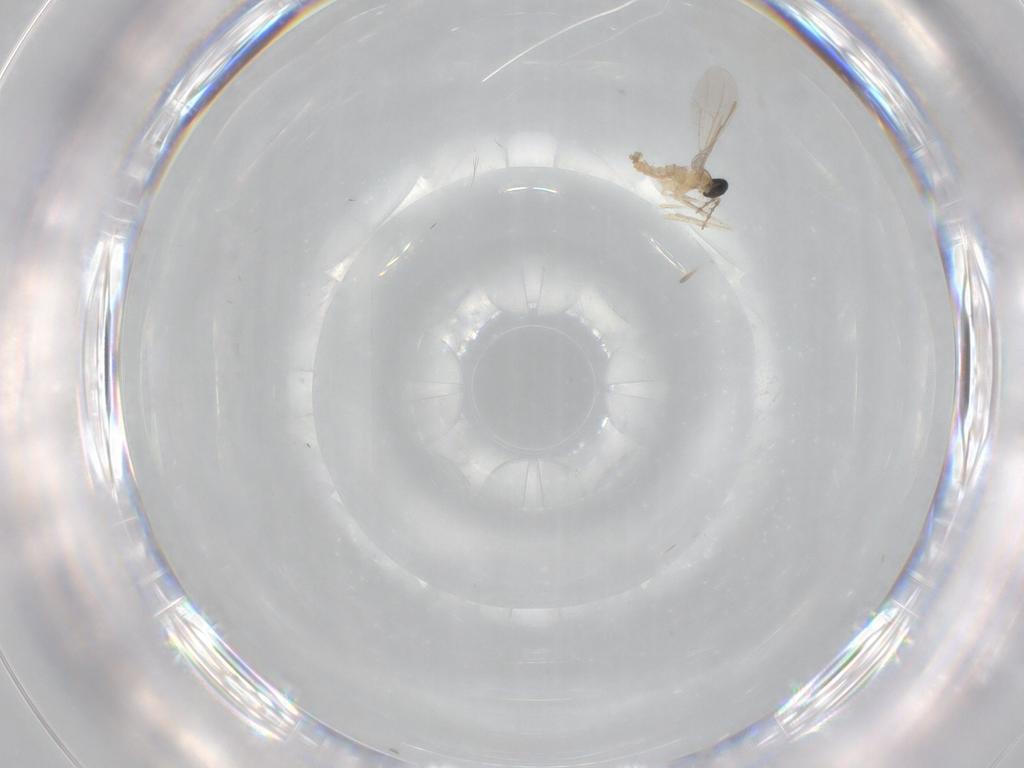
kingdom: Animalia
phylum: Arthropoda
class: Insecta
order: Diptera
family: Cecidomyiidae
